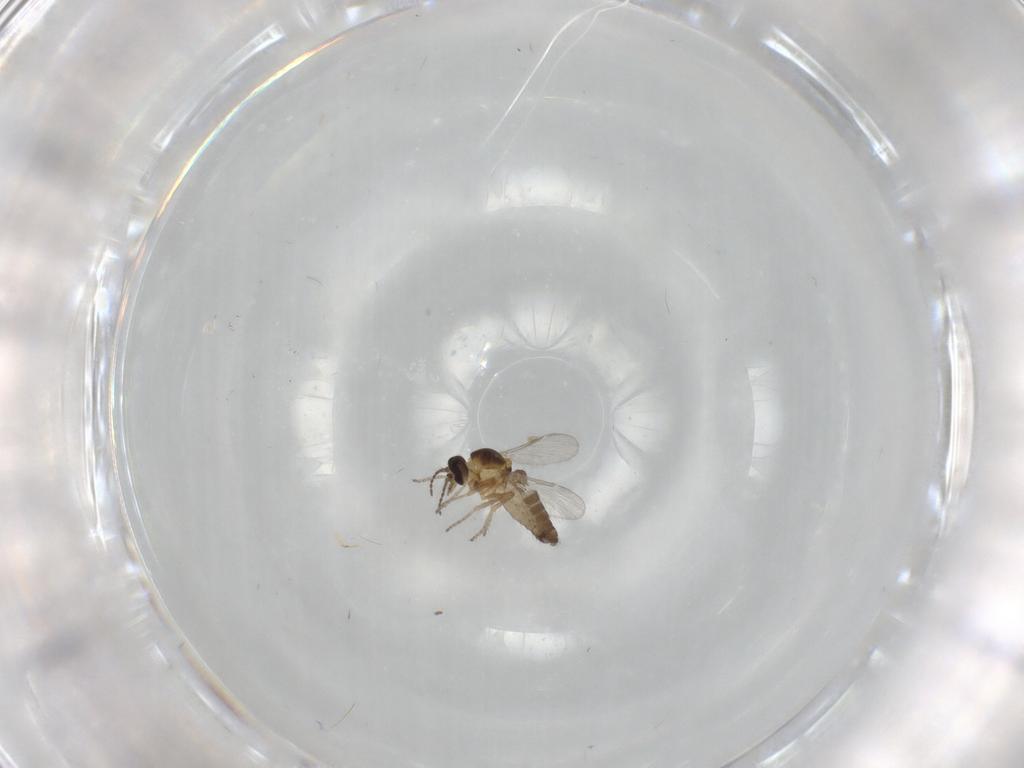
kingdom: Animalia
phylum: Arthropoda
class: Insecta
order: Diptera
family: Ceratopogonidae
